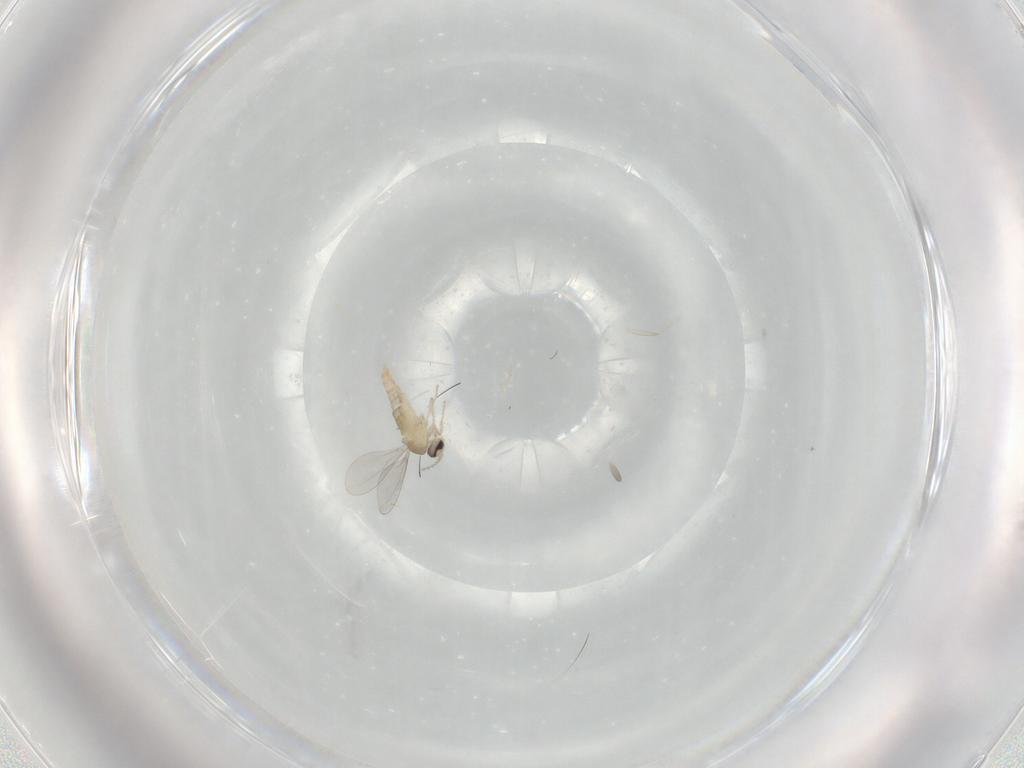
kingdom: Animalia
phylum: Arthropoda
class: Insecta
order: Diptera
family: Cecidomyiidae
